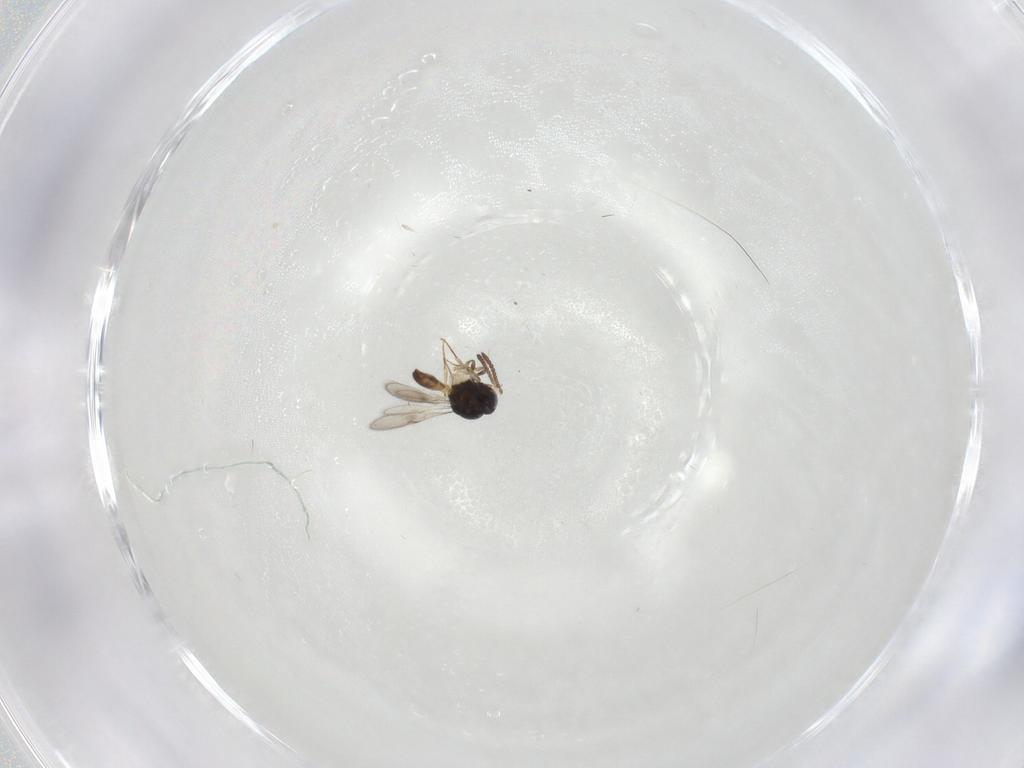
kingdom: Animalia
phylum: Arthropoda
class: Insecta
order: Hymenoptera
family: Scelionidae
